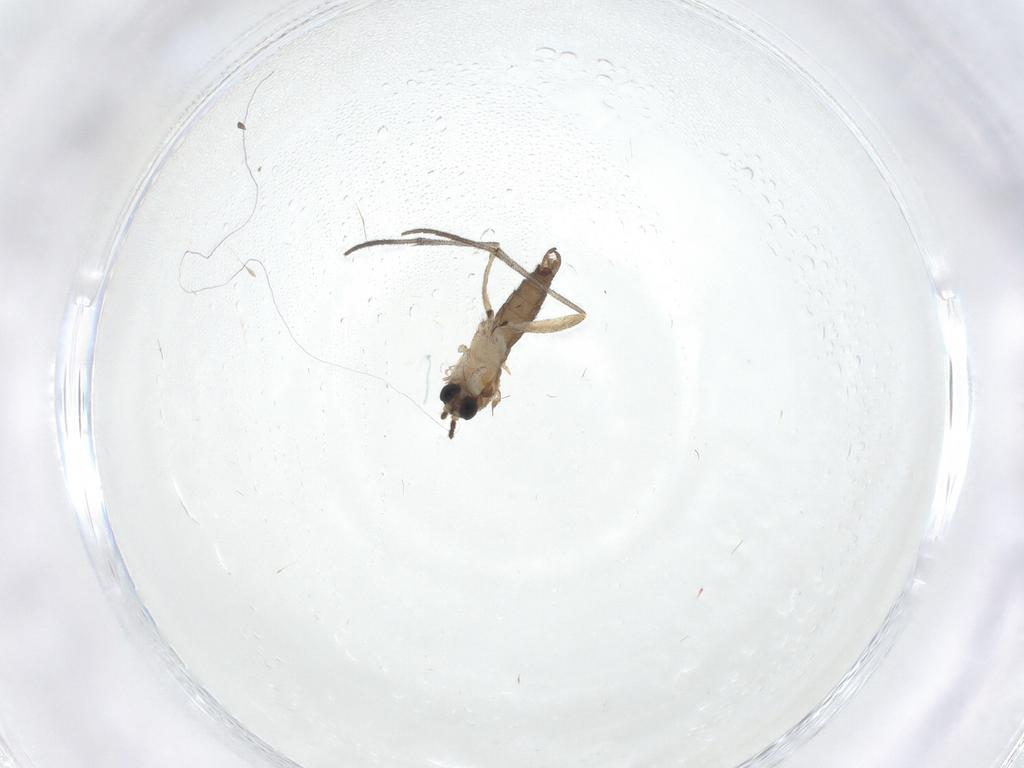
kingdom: Animalia
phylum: Arthropoda
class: Insecta
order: Diptera
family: Sciaridae
